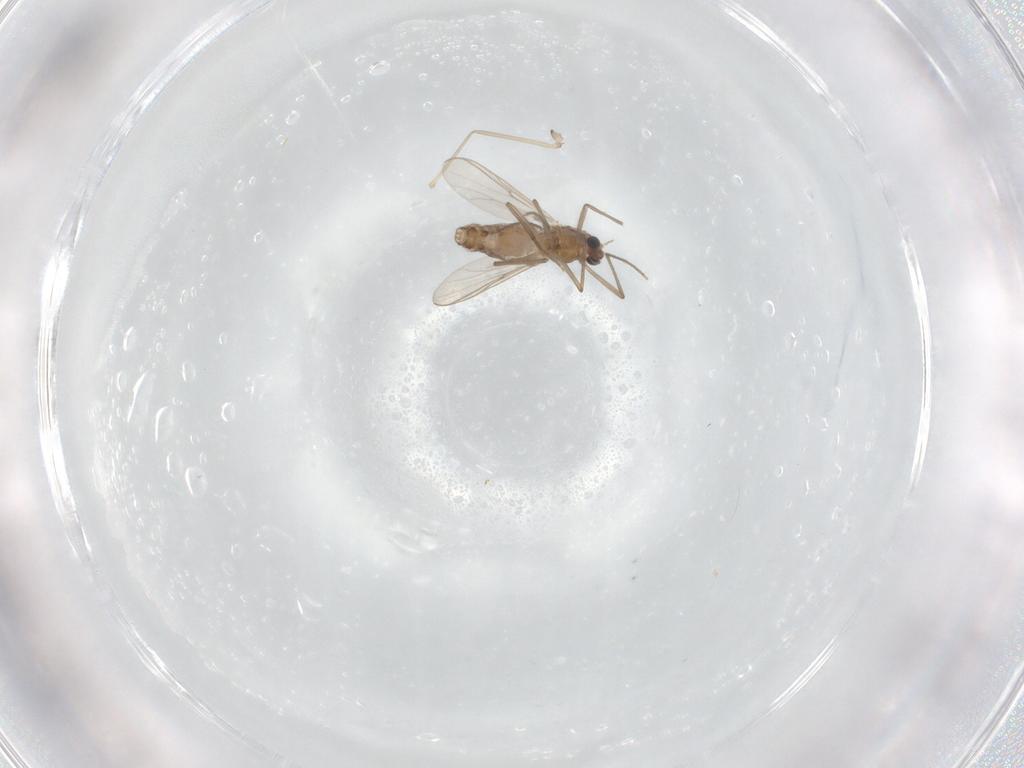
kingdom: Animalia
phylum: Arthropoda
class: Insecta
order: Diptera
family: Chironomidae
